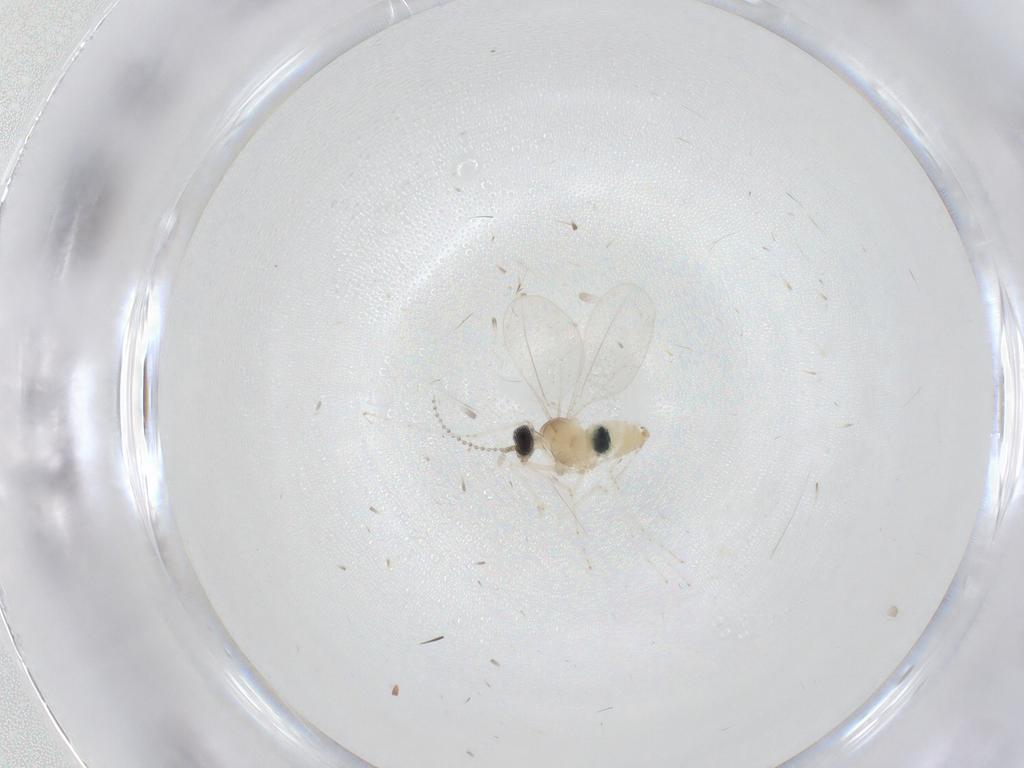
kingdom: Animalia
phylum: Arthropoda
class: Insecta
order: Diptera
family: Cecidomyiidae
